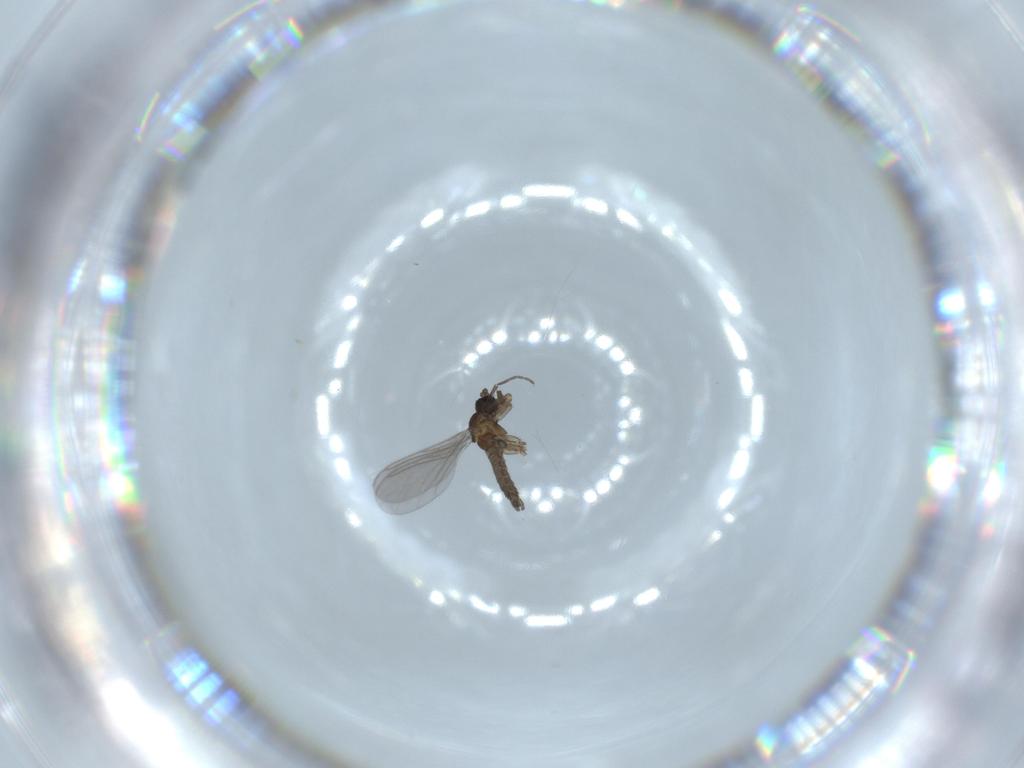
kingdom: Animalia
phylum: Arthropoda
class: Insecta
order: Diptera
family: Sciaridae
